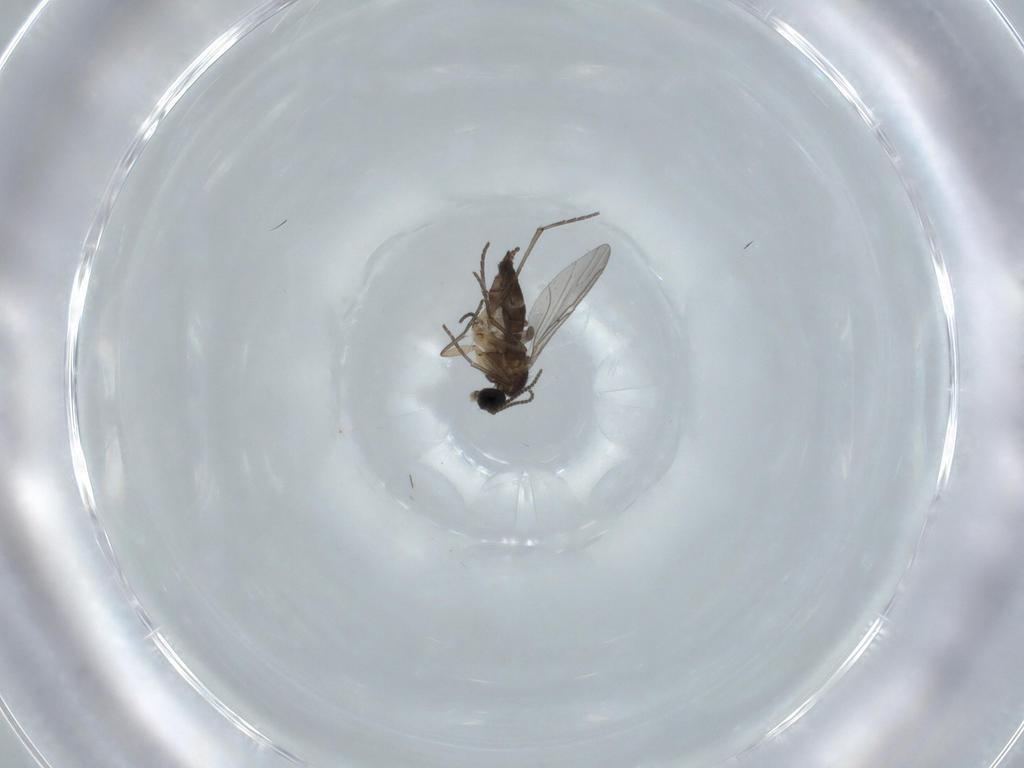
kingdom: Animalia
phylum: Arthropoda
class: Insecta
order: Diptera
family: Sciaridae
